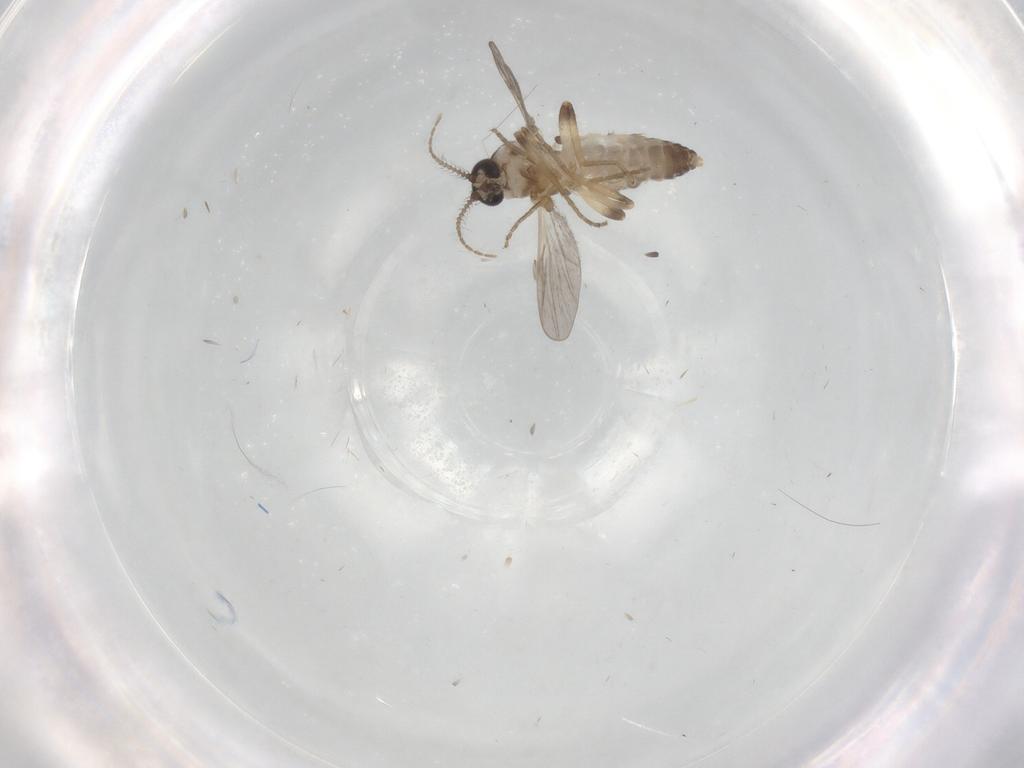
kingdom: Animalia
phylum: Arthropoda
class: Insecta
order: Diptera
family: Ceratopogonidae
